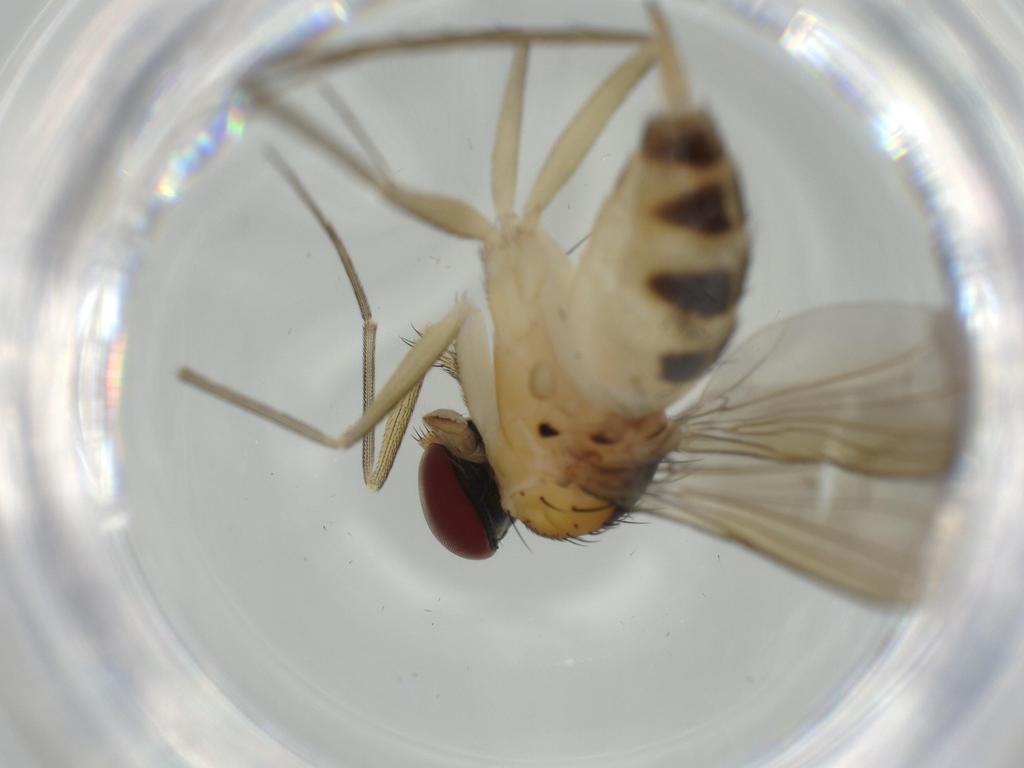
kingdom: Animalia
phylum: Arthropoda
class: Insecta
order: Diptera
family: Dolichopodidae
